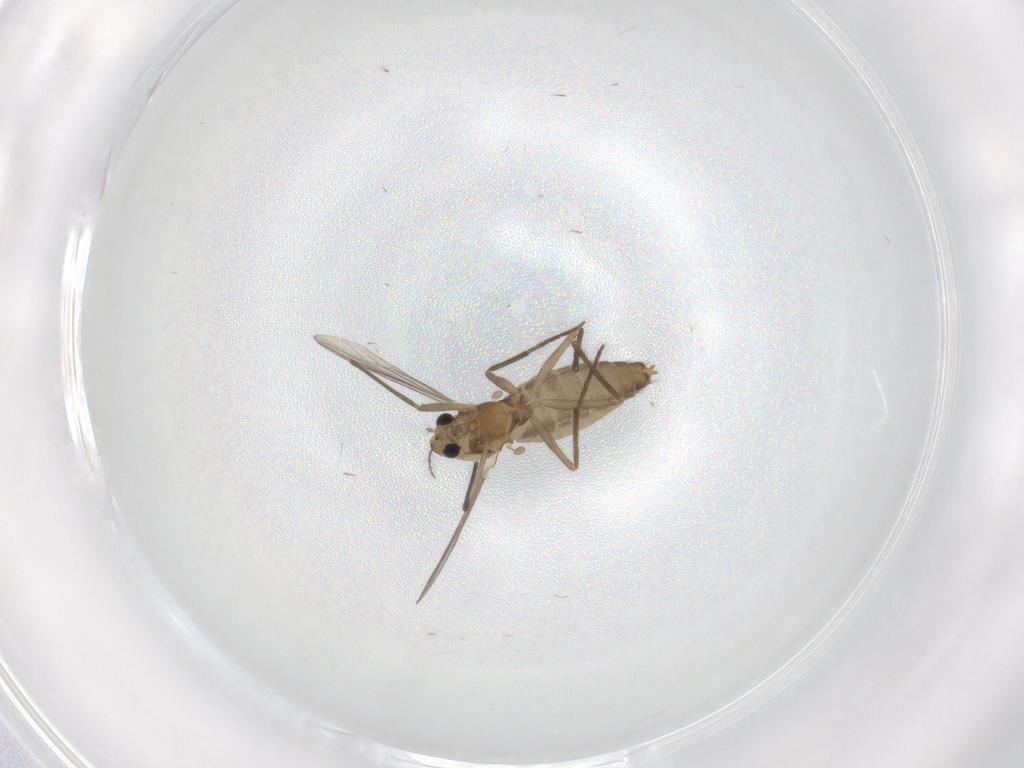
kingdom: Animalia
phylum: Arthropoda
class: Insecta
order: Diptera
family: Chironomidae
